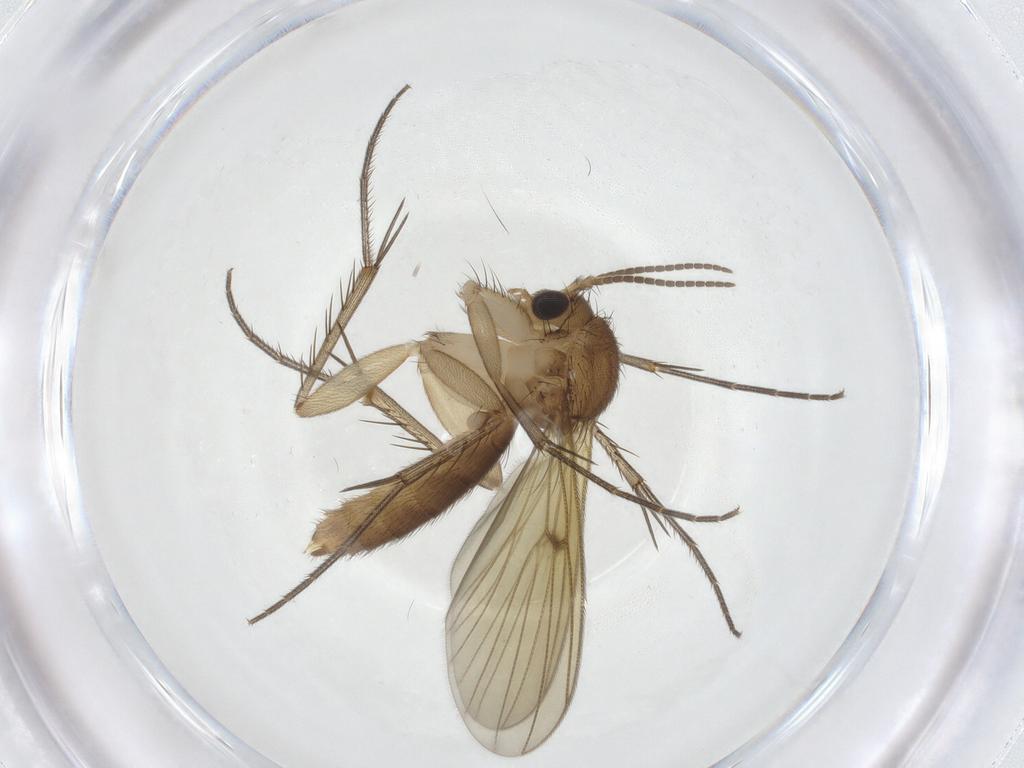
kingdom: Animalia
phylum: Arthropoda
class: Insecta
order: Diptera
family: Mycetophilidae
